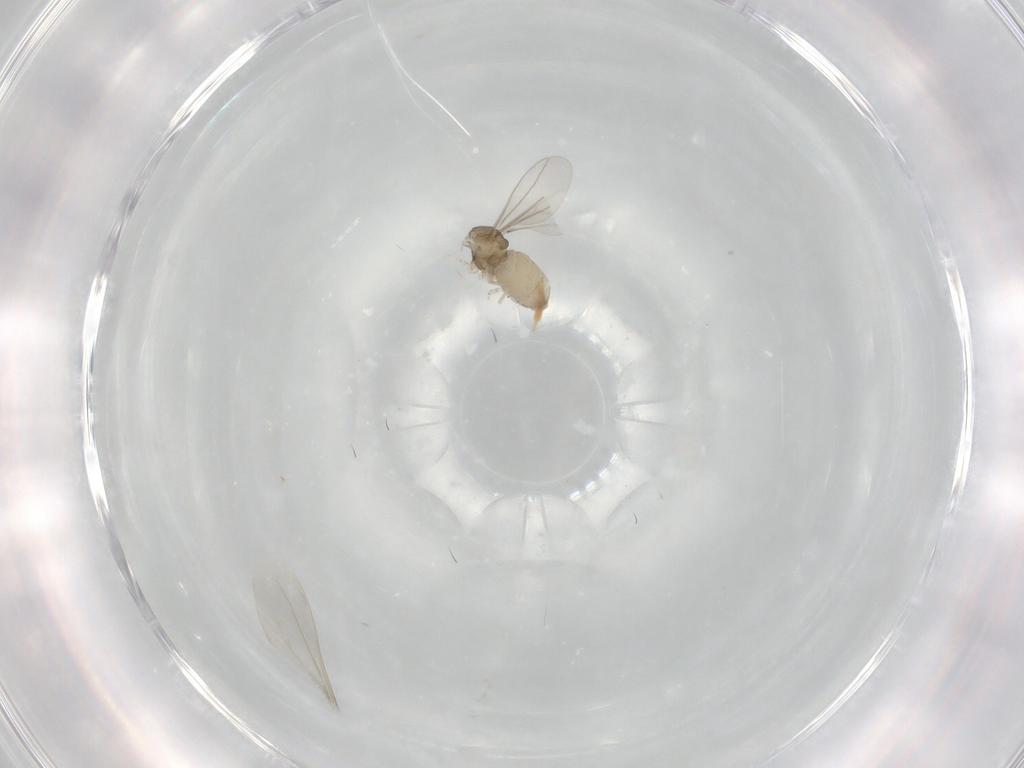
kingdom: Animalia
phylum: Arthropoda
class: Insecta
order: Diptera
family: Cecidomyiidae
